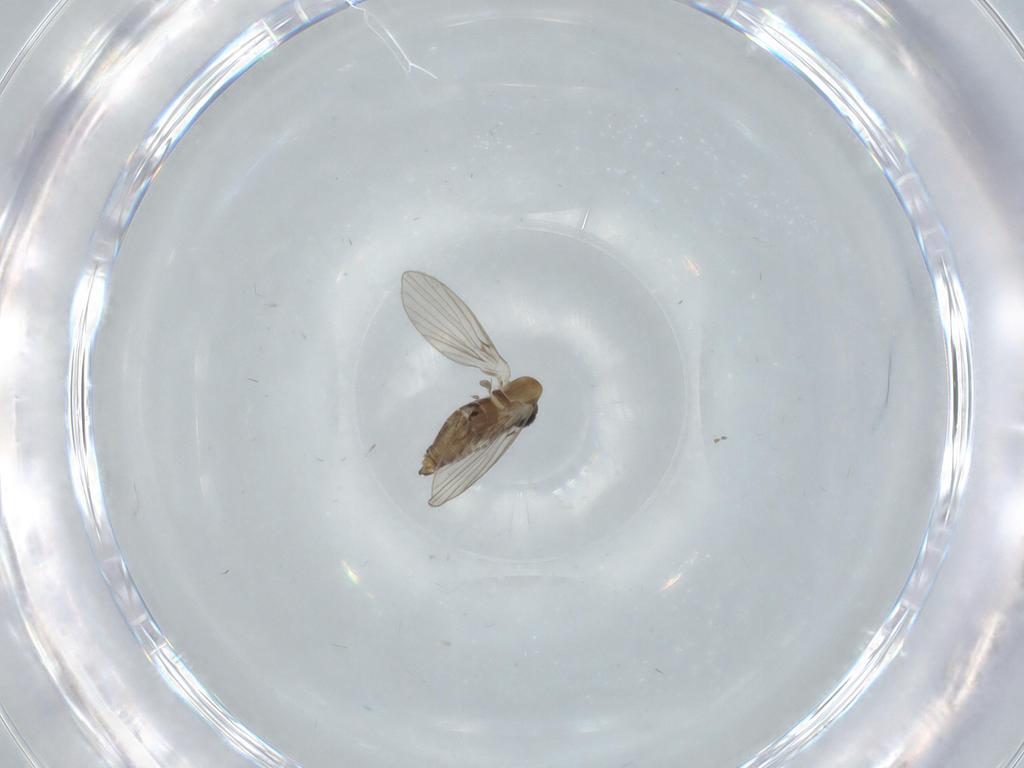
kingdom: Animalia
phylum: Arthropoda
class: Insecta
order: Diptera
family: Psychodidae
